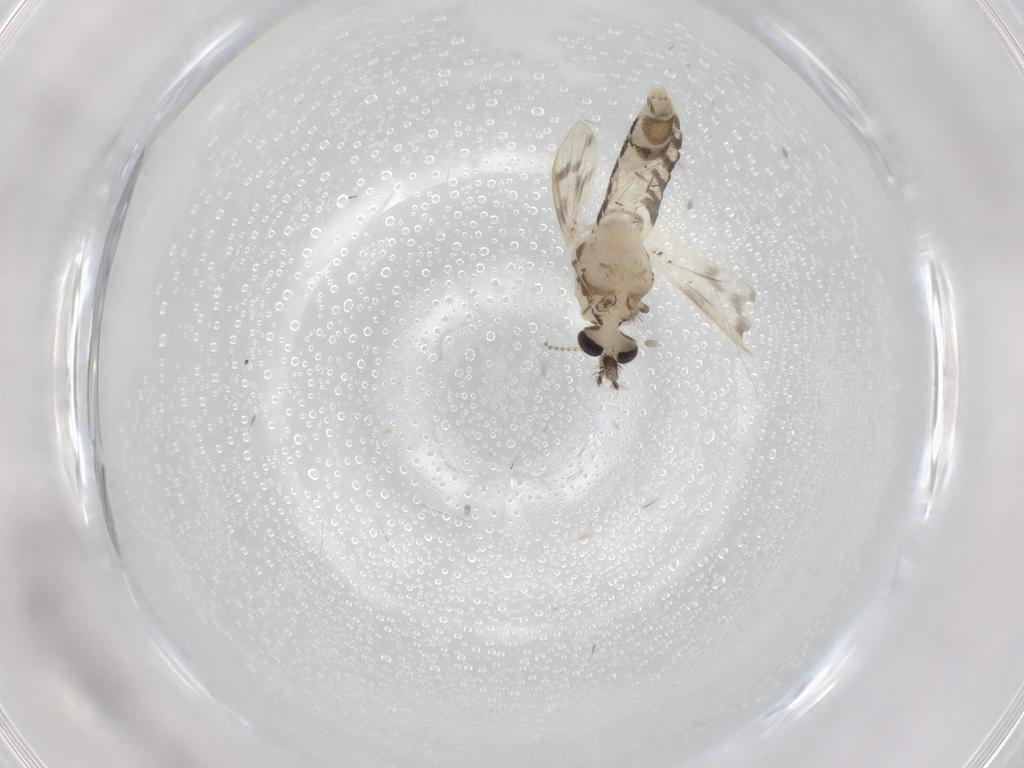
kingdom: Animalia
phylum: Arthropoda
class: Insecta
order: Diptera
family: Corethrellidae
